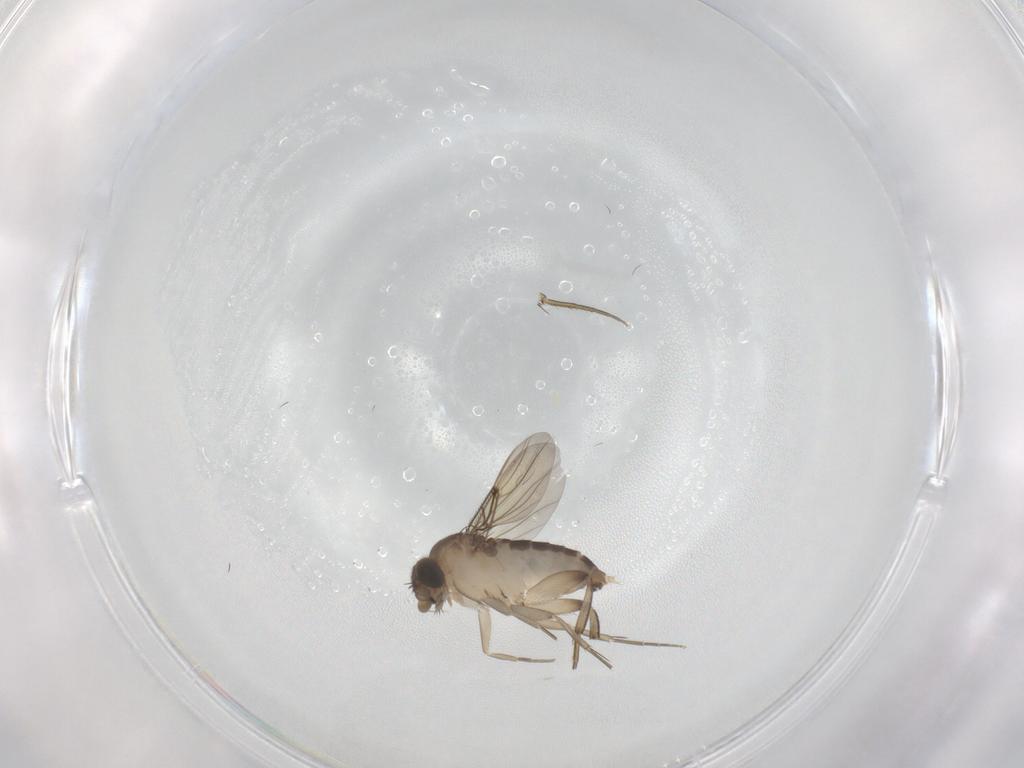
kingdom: Animalia
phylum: Arthropoda
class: Insecta
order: Diptera
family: Phoridae
